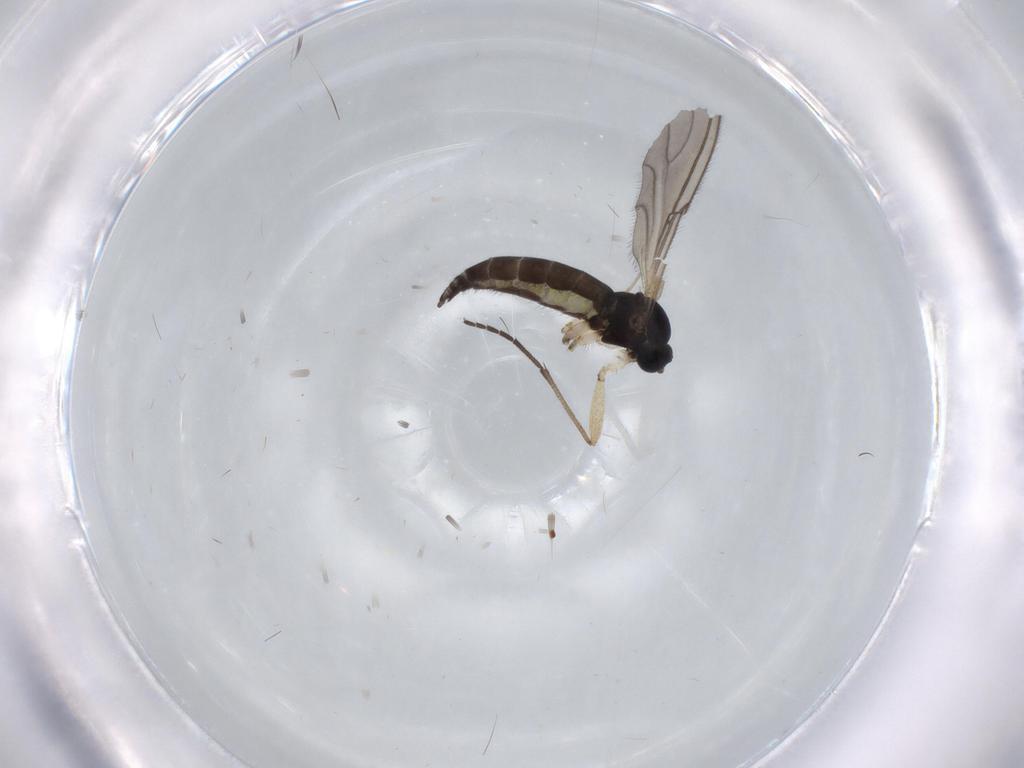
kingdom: Animalia
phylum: Arthropoda
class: Insecta
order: Diptera
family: Sciaridae
